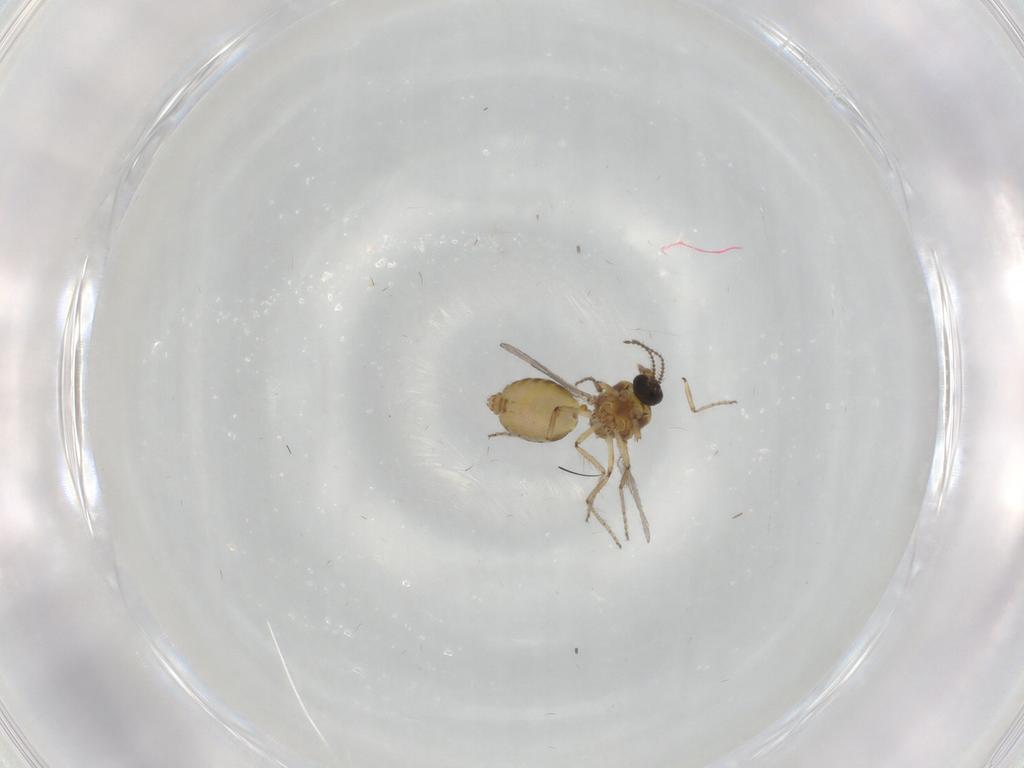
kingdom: Animalia
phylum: Arthropoda
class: Insecta
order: Diptera
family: Ceratopogonidae
